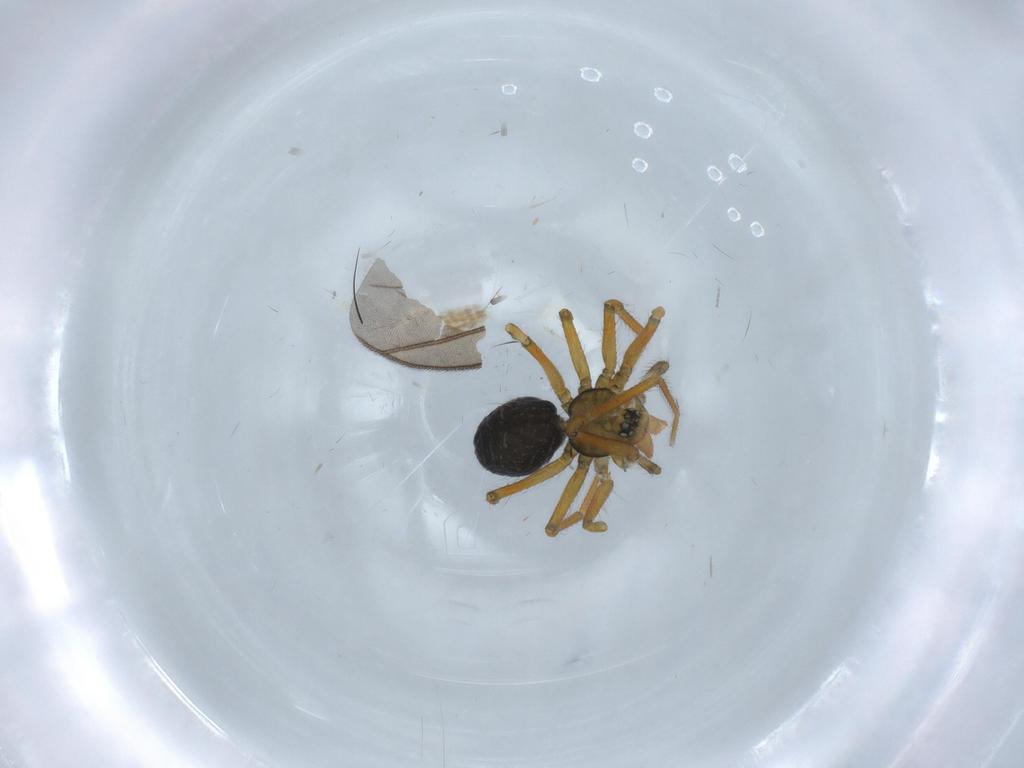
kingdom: Animalia
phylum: Arthropoda
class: Arachnida
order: Araneae
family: Linyphiidae
